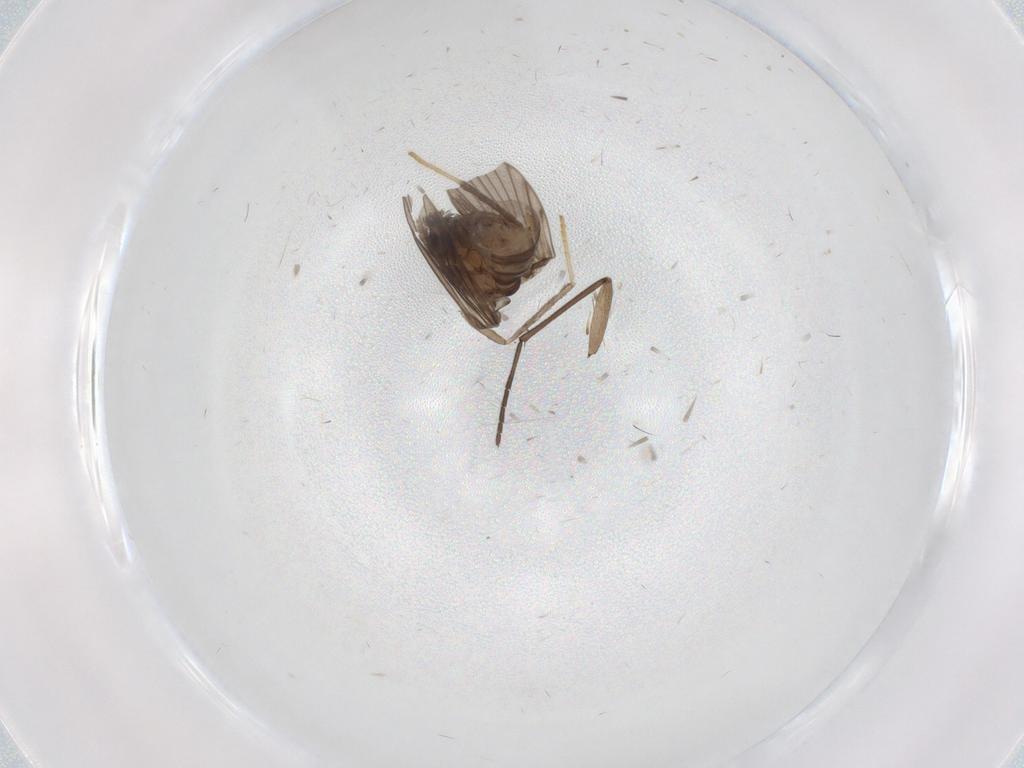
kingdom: Animalia
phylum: Arthropoda
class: Insecta
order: Diptera
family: Sciaridae
